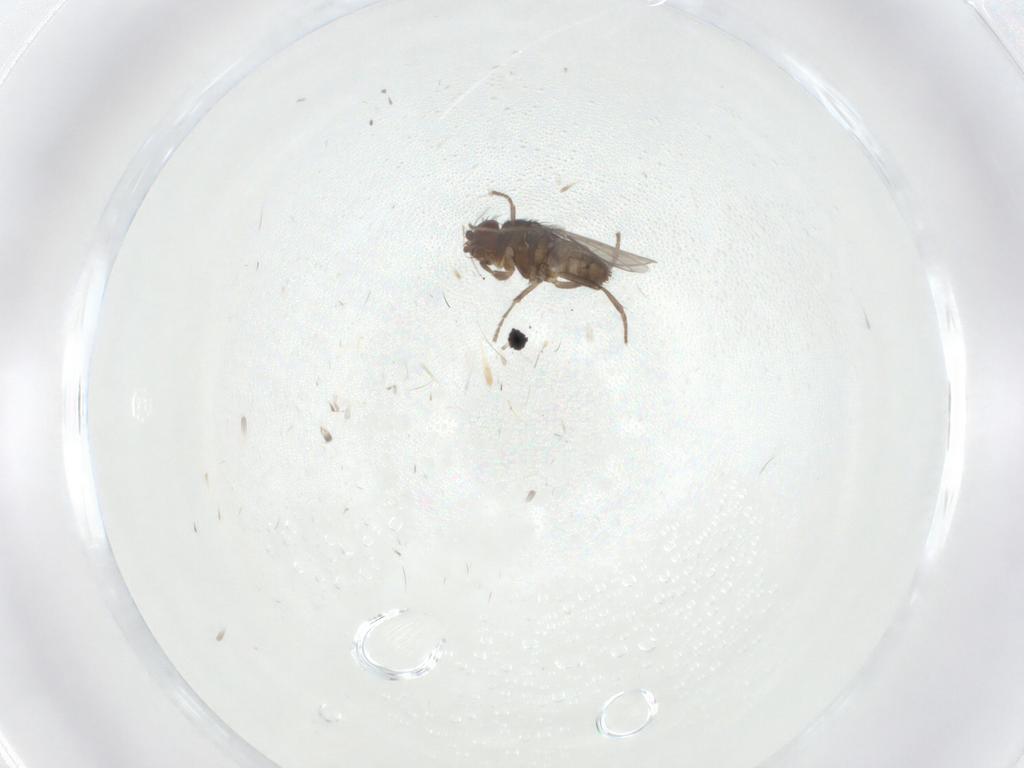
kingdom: Animalia
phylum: Arthropoda
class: Insecta
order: Diptera
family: Sphaeroceridae
